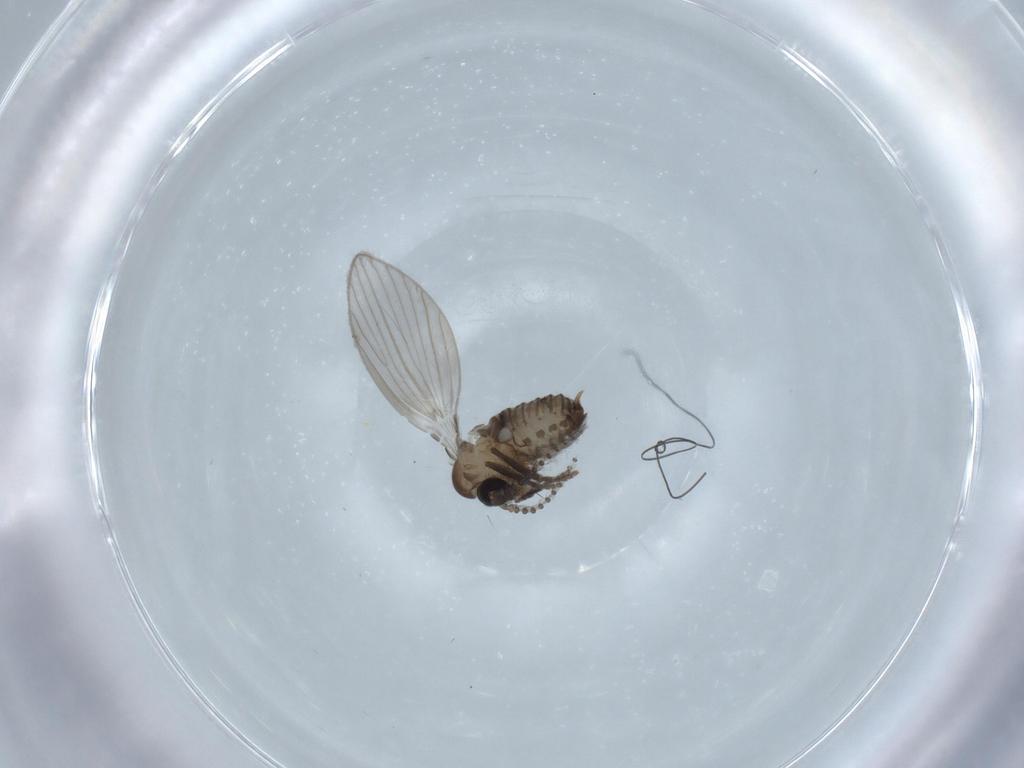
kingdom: Animalia
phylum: Arthropoda
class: Insecta
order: Diptera
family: Psychodidae
